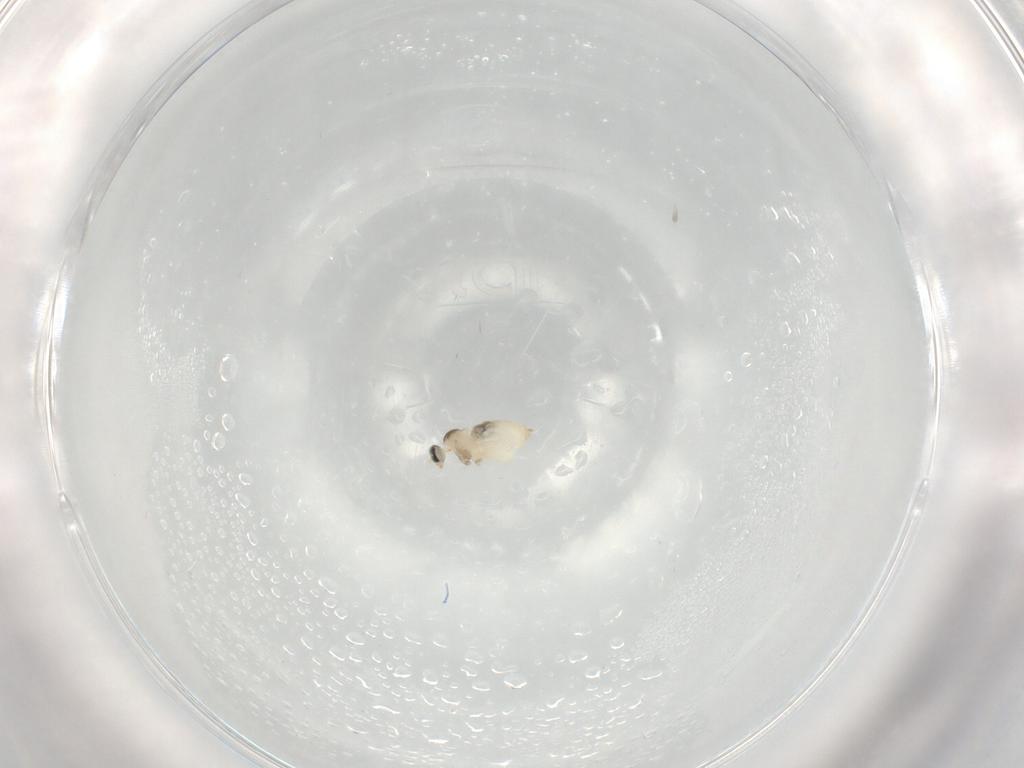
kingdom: Animalia
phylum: Arthropoda
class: Insecta
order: Diptera
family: Cecidomyiidae
